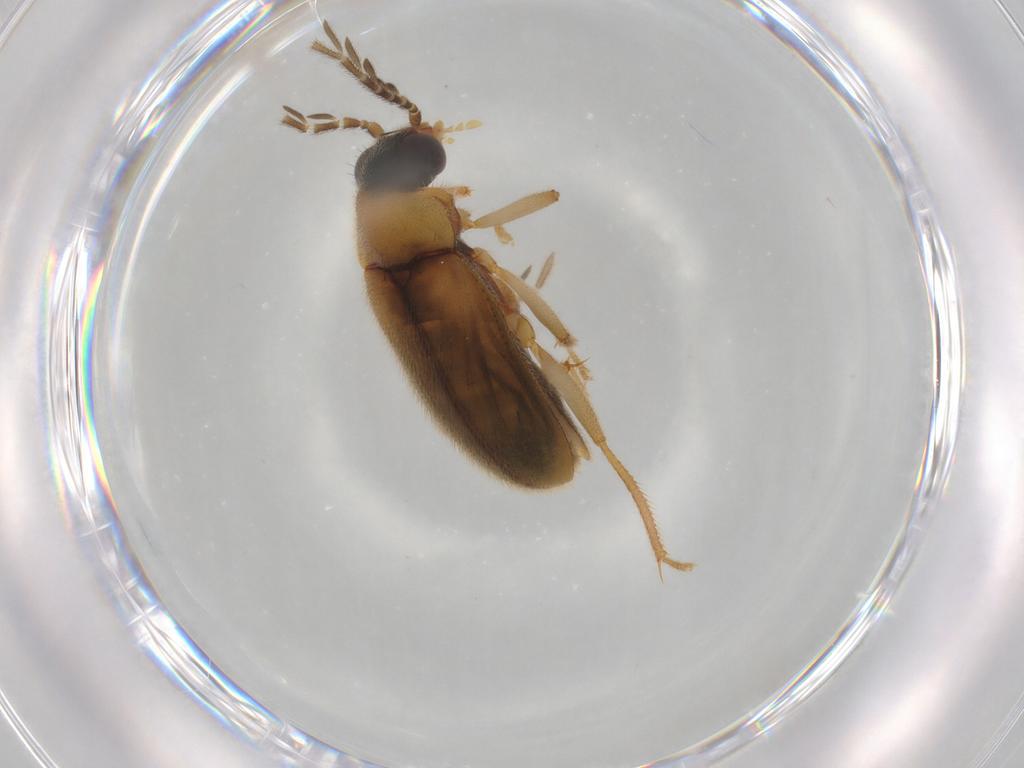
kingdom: Animalia
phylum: Arthropoda
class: Insecta
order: Coleoptera
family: Ptilodactylidae
